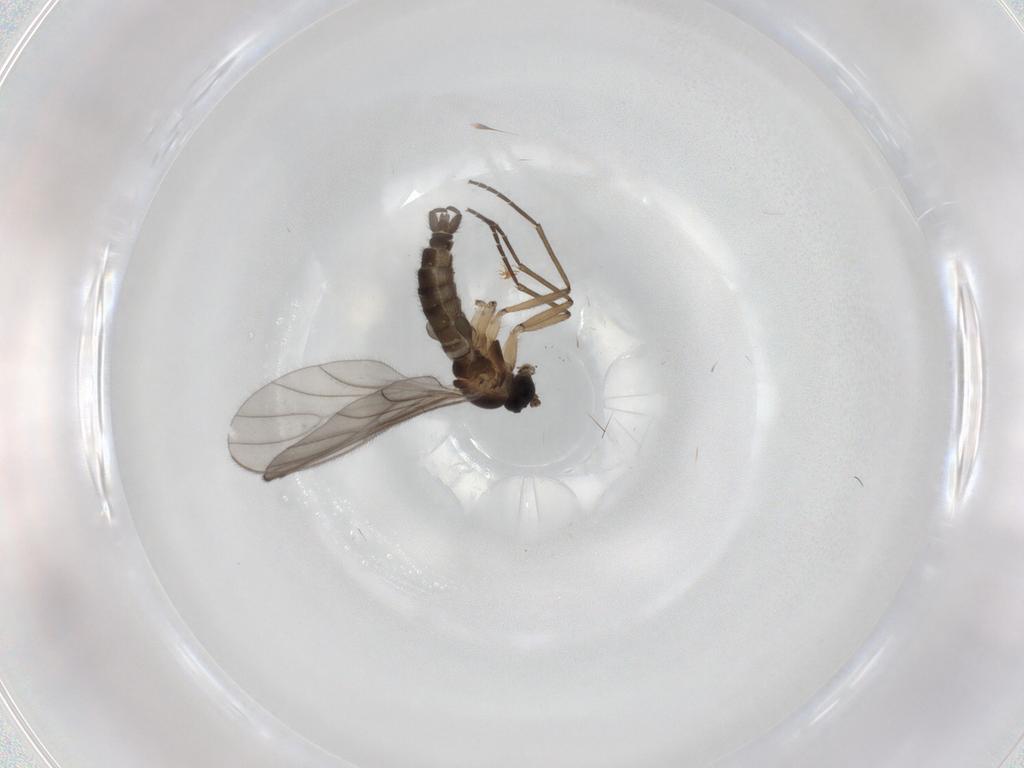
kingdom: Animalia
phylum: Arthropoda
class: Insecta
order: Diptera
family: Sciaridae
